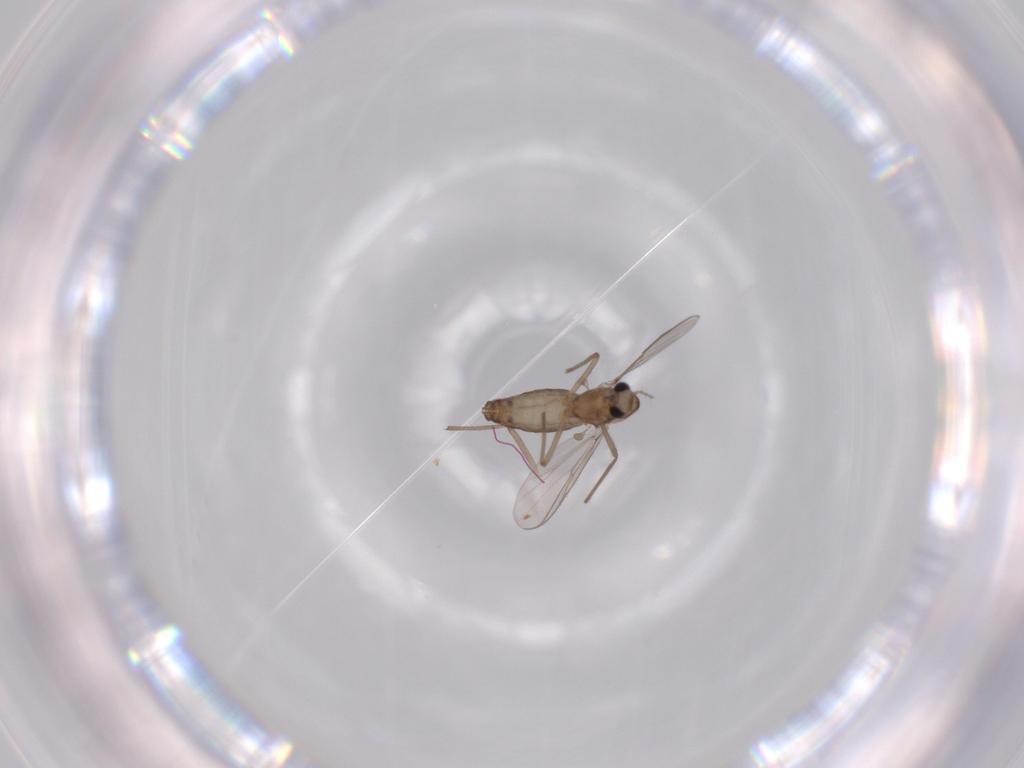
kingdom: Animalia
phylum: Arthropoda
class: Insecta
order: Diptera
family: Chironomidae
